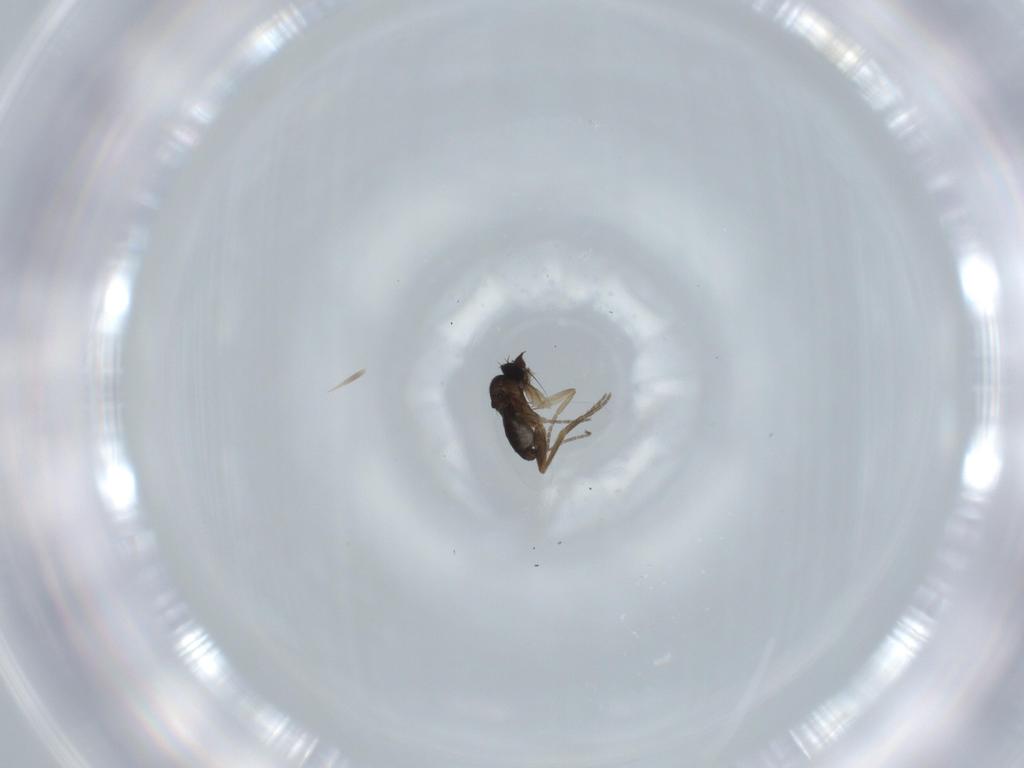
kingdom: Animalia
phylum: Arthropoda
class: Insecta
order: Diptera
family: Phoridae
